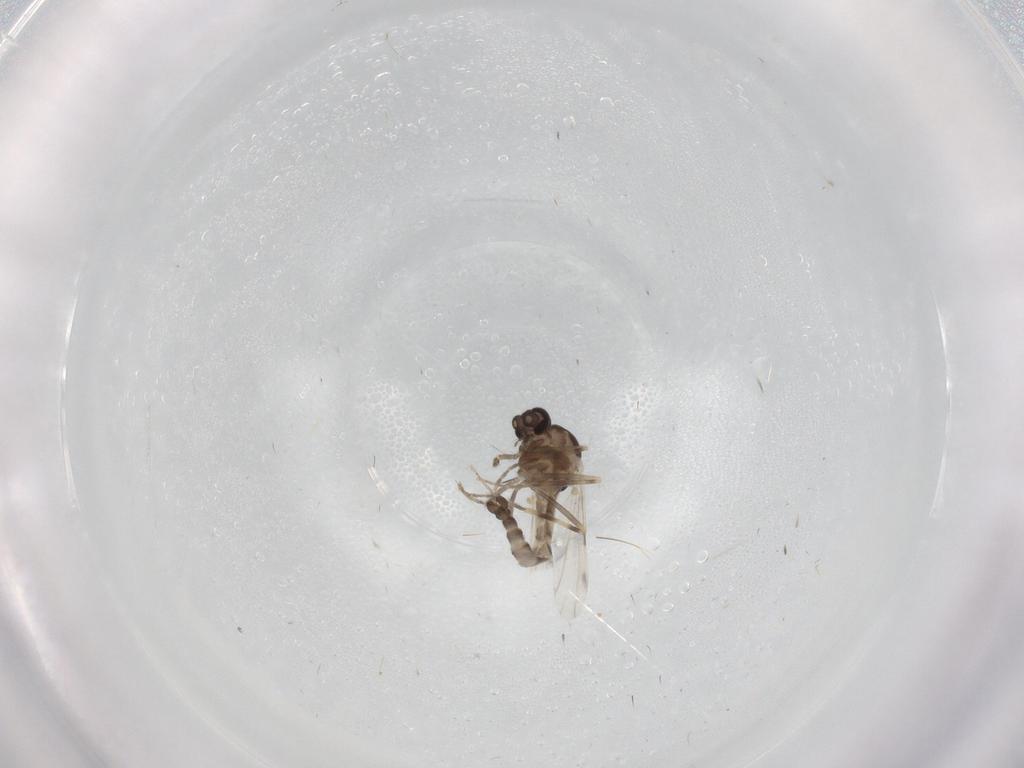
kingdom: Animalia
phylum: Arthropoda
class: Insecta
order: Diptera
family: Ceratopogonidae
